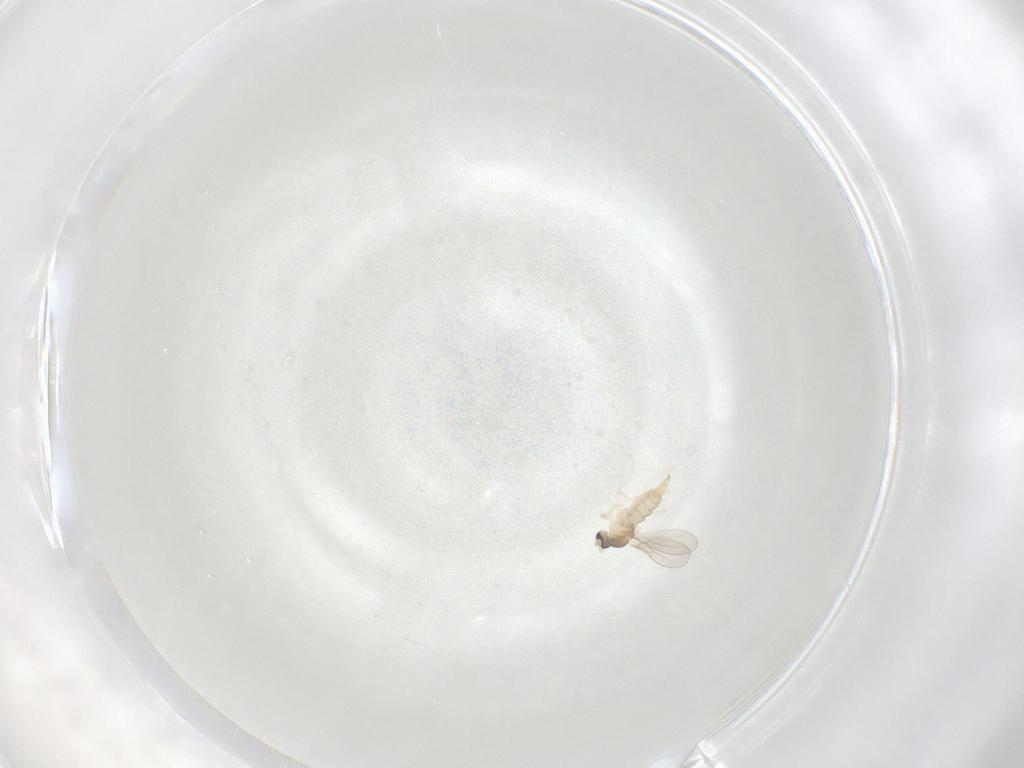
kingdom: Animalia
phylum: Arthropoda
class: Insecta
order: Diptera
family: Cecidomyiidae
